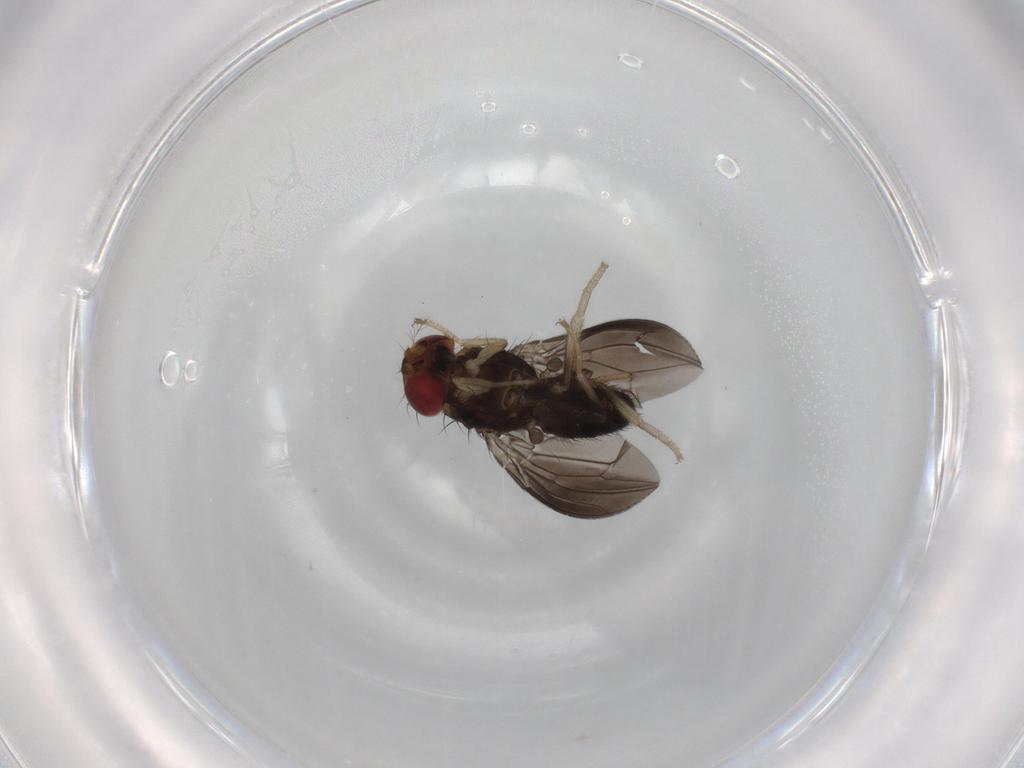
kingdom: Animalia
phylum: Arthropoda
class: Insecta
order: Diptera
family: Drosophilidae
